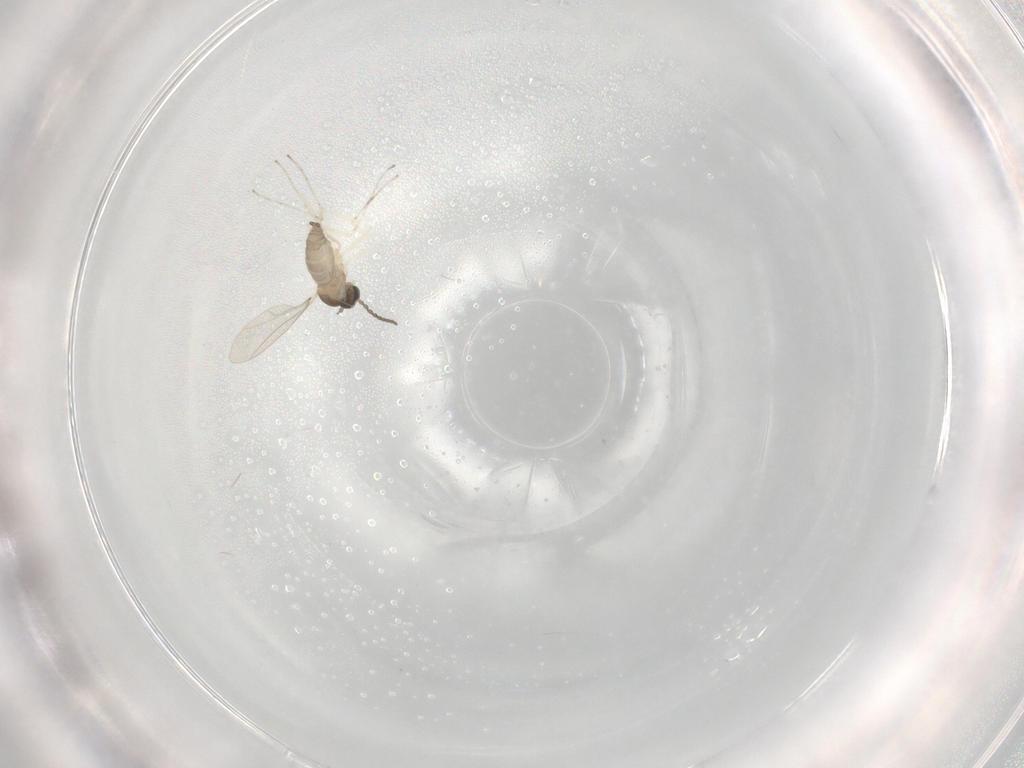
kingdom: Animalia
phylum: Arthropoda
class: Insecta
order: Diptera
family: Cecidomyiidae
